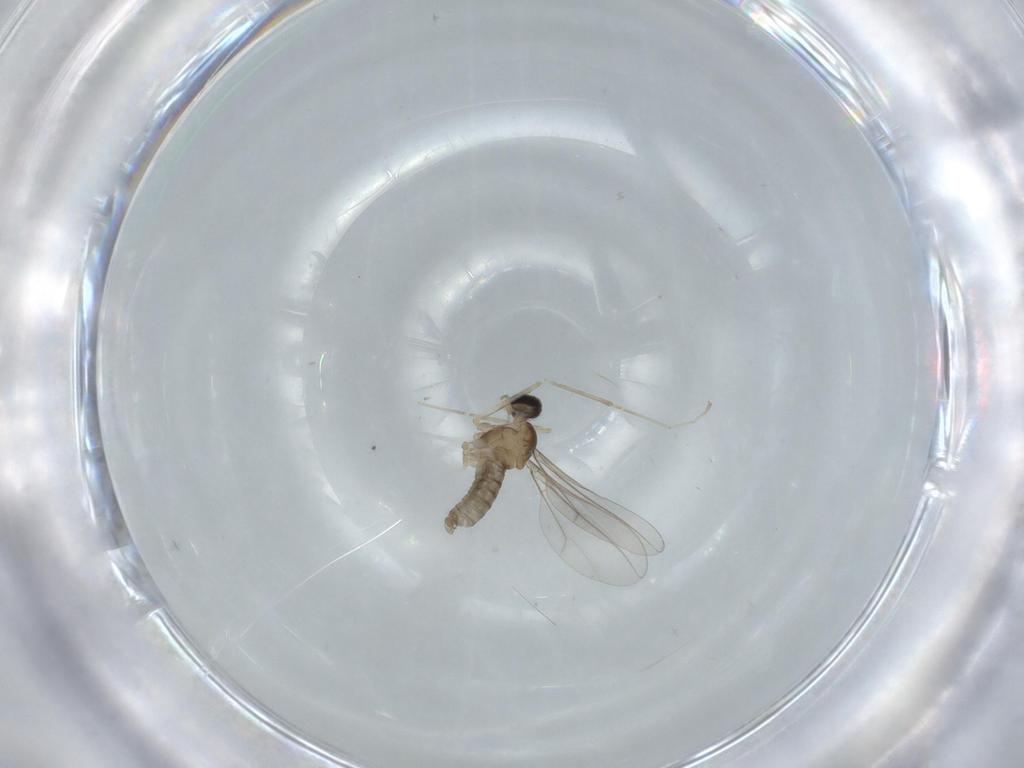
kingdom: Animalia
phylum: Arthropoda
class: Insecta
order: Diptera
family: Cecidomyiidae
